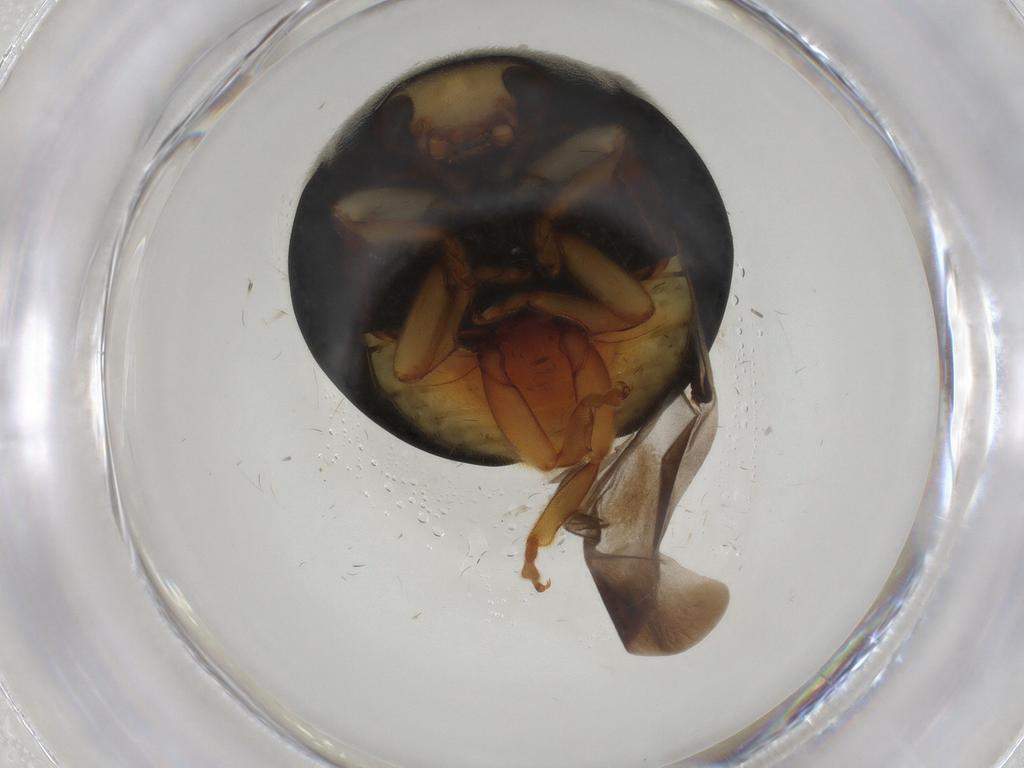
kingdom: Animalia
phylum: Arthropoda
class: Insecta
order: Coleoptera
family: Coccinellidae
